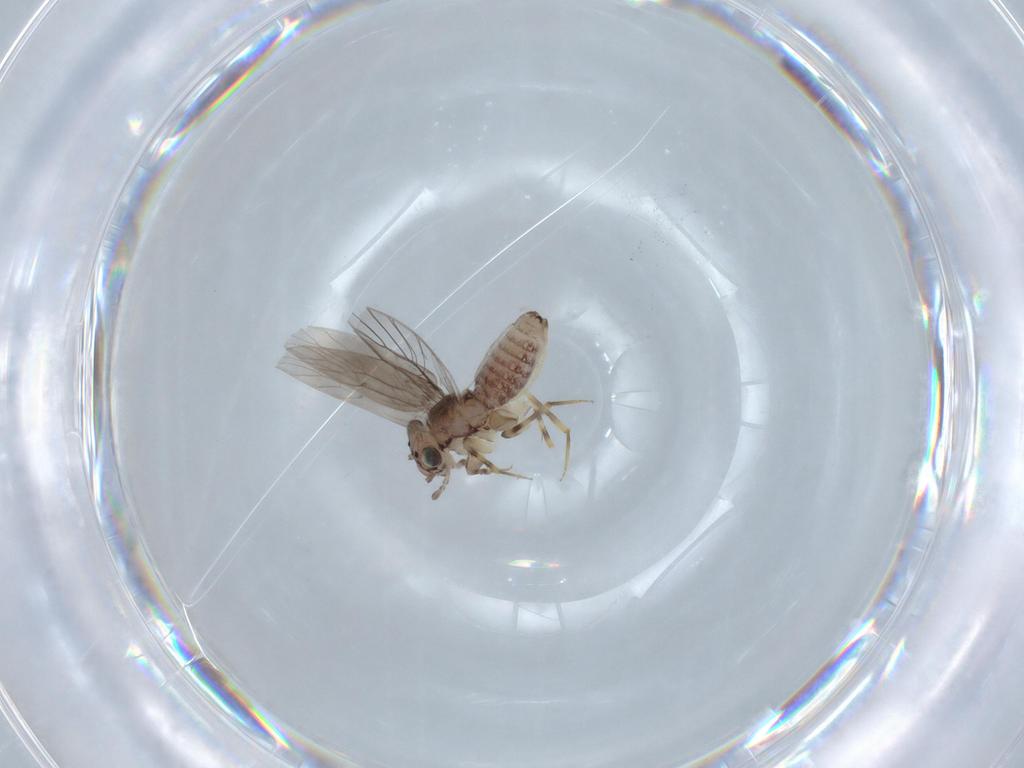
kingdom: Animalia
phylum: Arthropoda
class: Insecta
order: Psocodea
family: Lepidopsocidae
